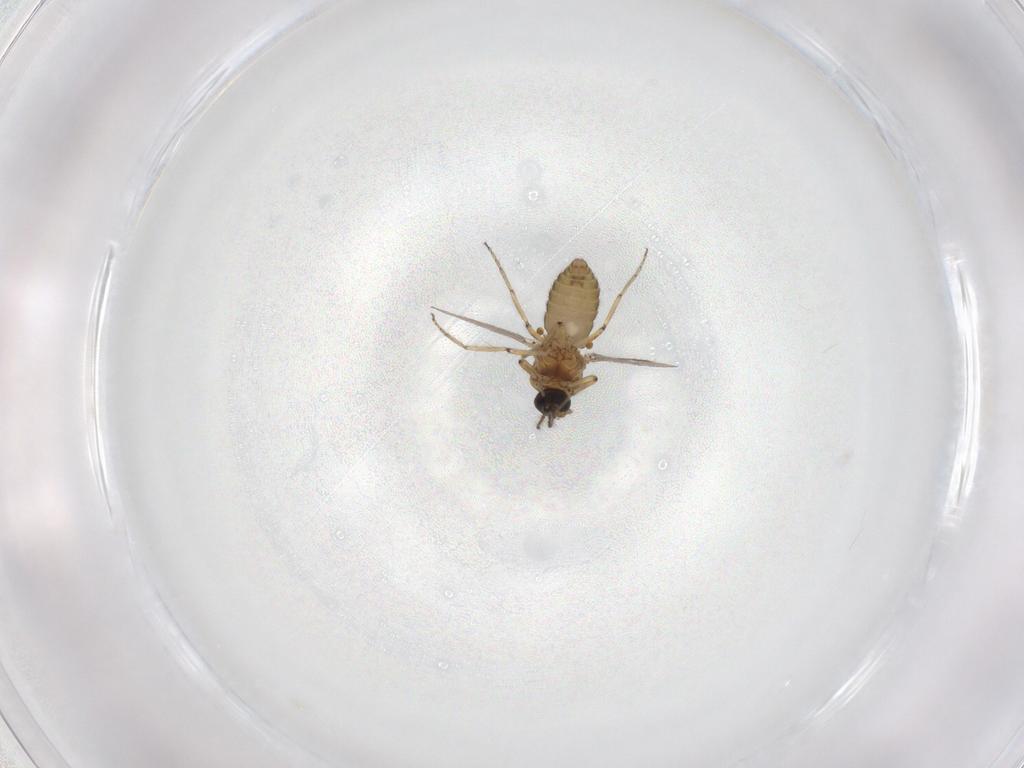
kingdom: Animalia
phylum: Arthropoda
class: Insecta
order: Diptera
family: Ceratopogonidae
